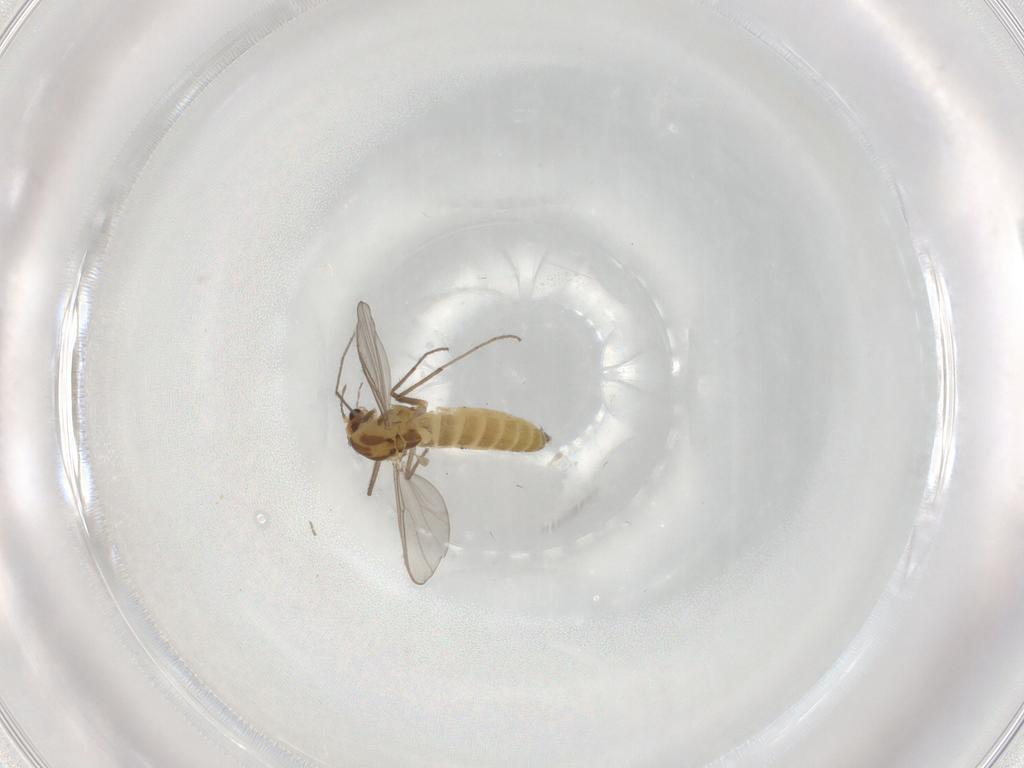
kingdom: Animalia
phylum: Arthropoda
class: Insecta
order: Diptera
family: Chironomidae
